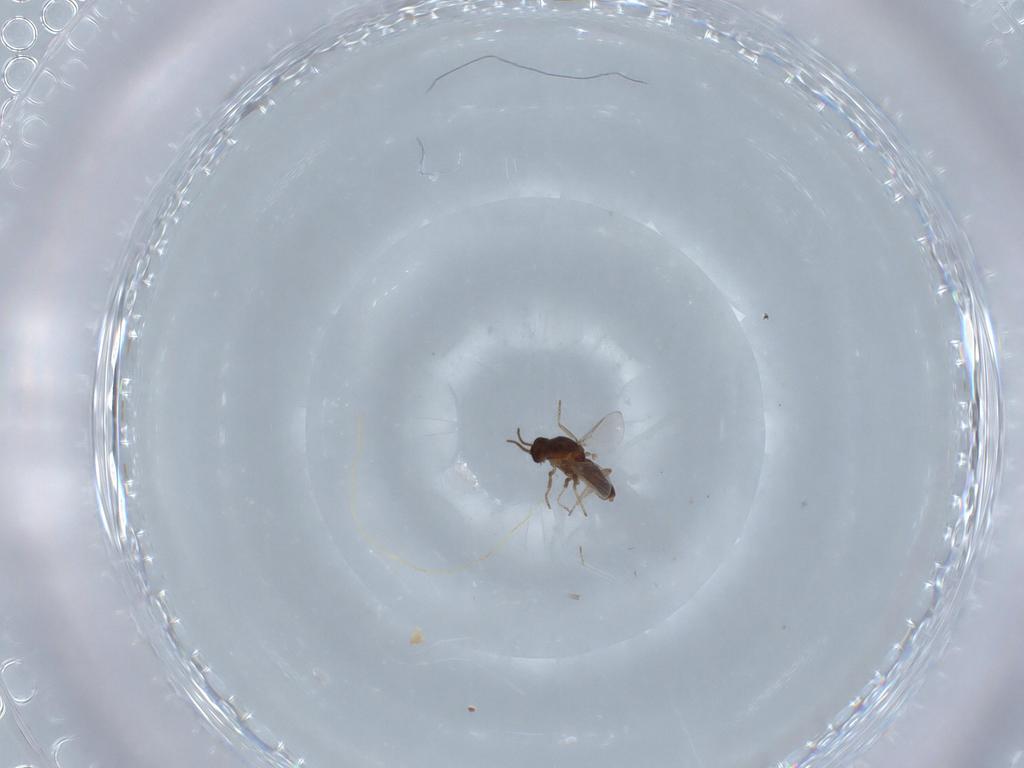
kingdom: Animalia
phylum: Arthropoda
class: Insecta
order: Diptera
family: Ceratopogonidae
